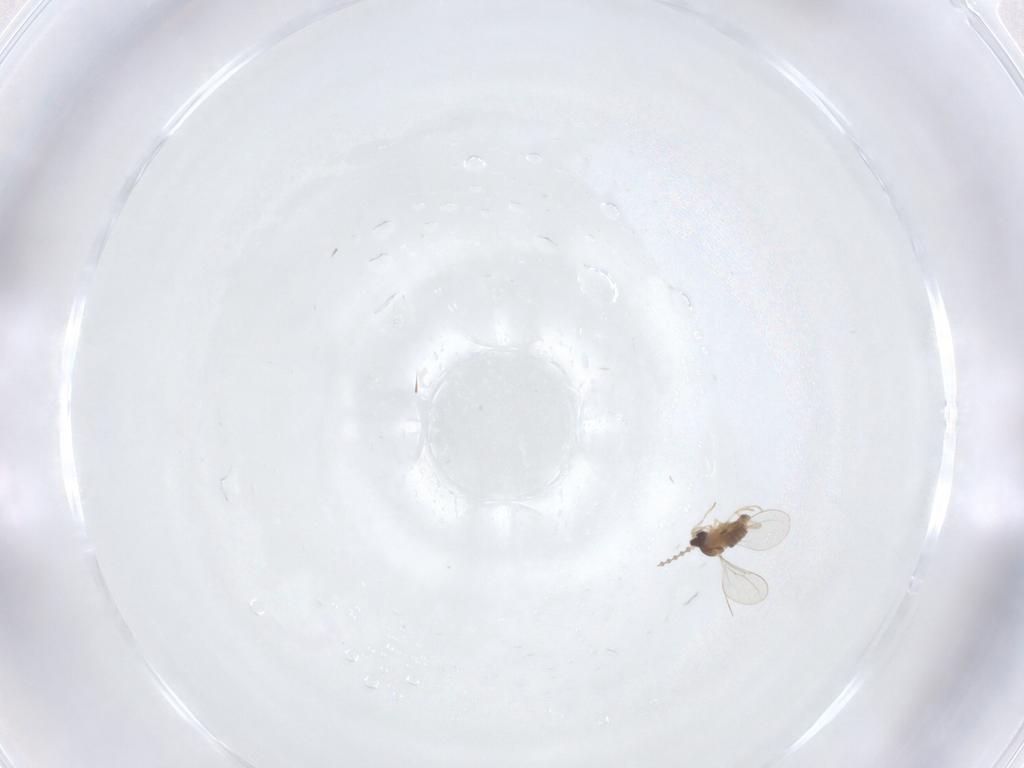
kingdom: Animalia
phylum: Arthropoda
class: Insecta
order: Diptera
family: Cecidomyiidae
